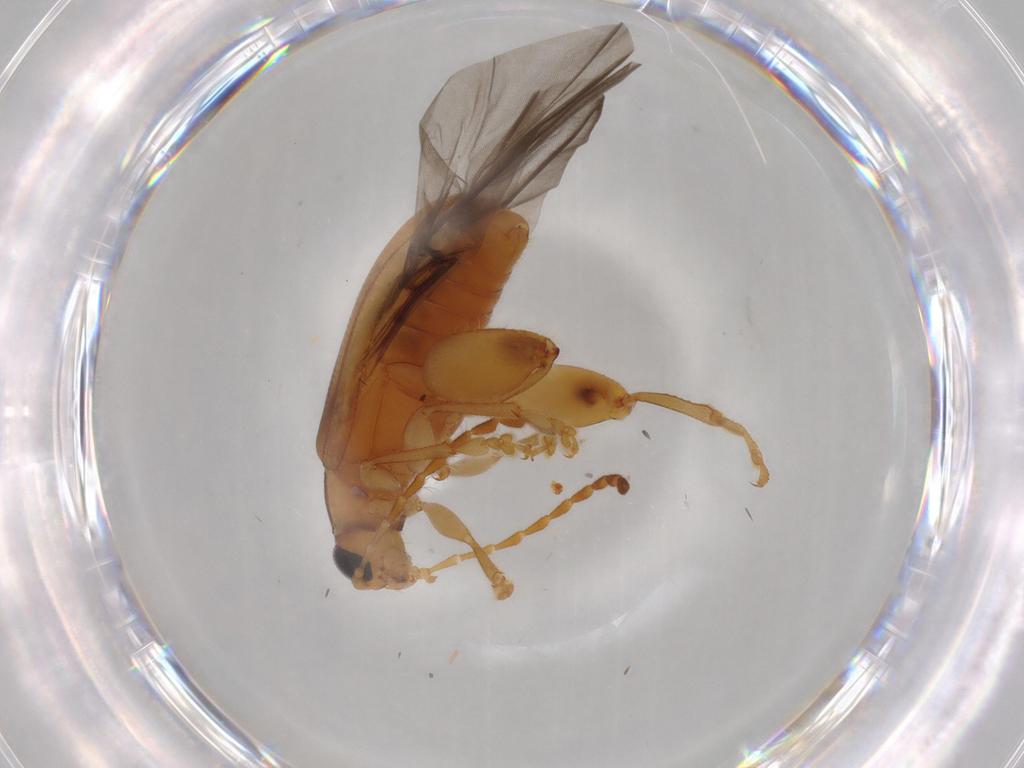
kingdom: Animalia
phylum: Arthropoda
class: Insecta
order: Coleoptera
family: Chrysomelidae
